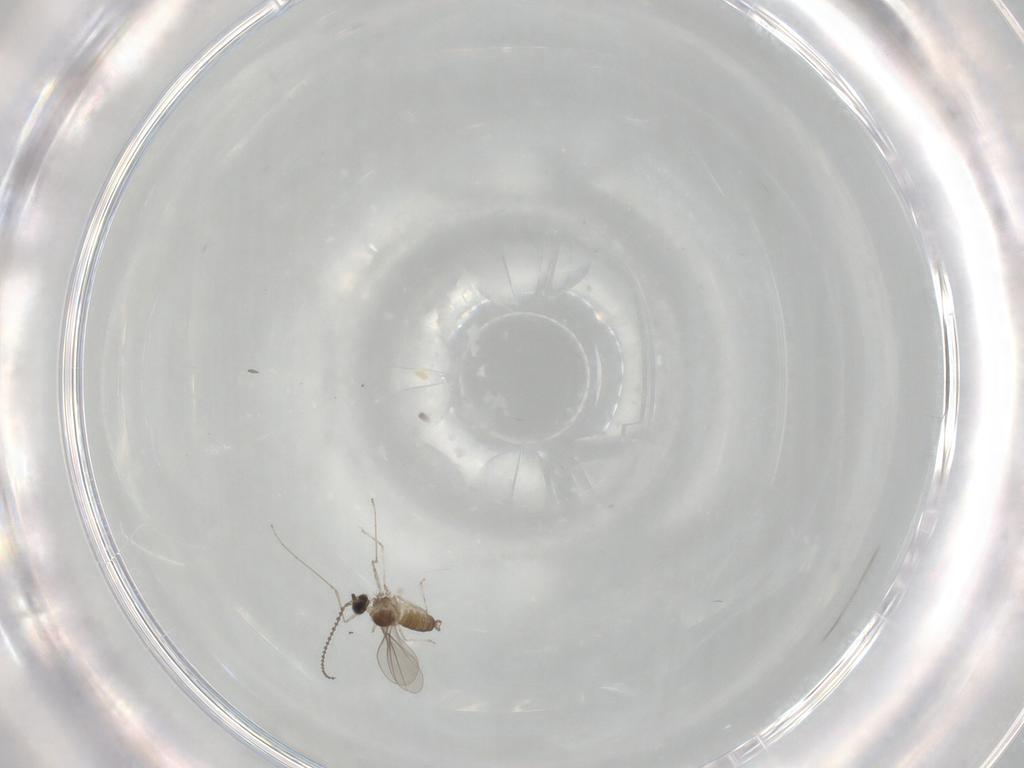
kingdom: Animalia
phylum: Arthropoda
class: Insecta
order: Diptera
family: Cecidomyiidae
